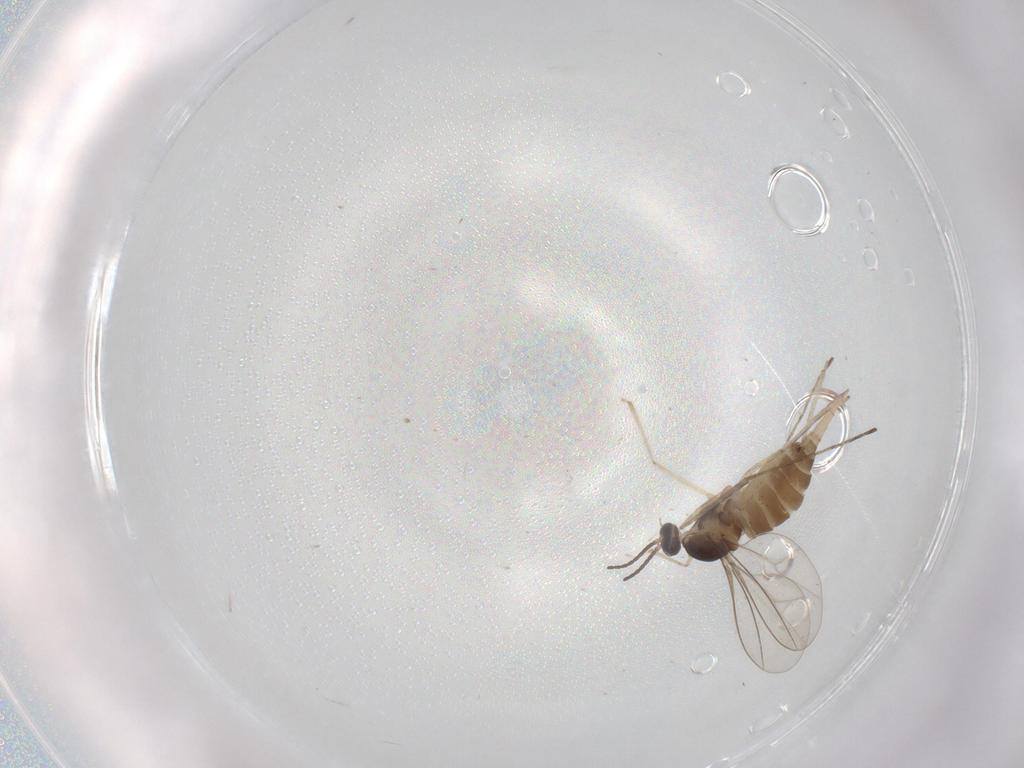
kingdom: Animalia
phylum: Arthropoda
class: Insecta
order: Diptera
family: Cecidomyiidae
